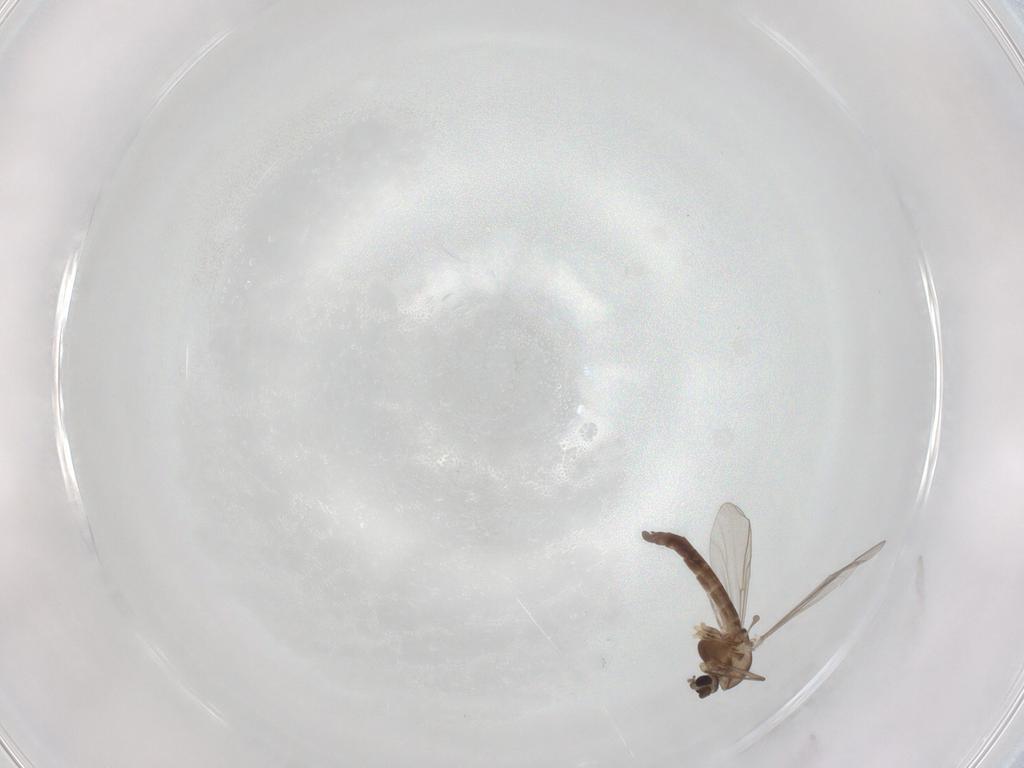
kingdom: Animalia
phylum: Arthropoda
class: Insecta
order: Diptera
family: Chironomidae
